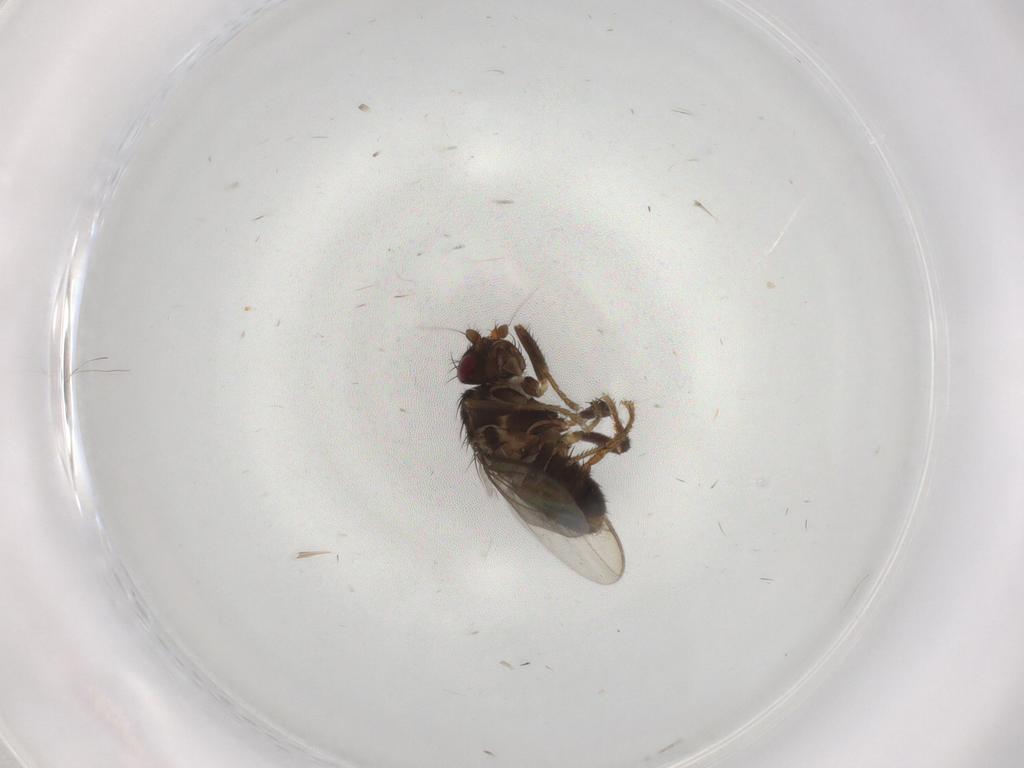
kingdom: Animalia
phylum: Arthropoda
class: Insecta
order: Diptera
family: Sphaeroceridae
